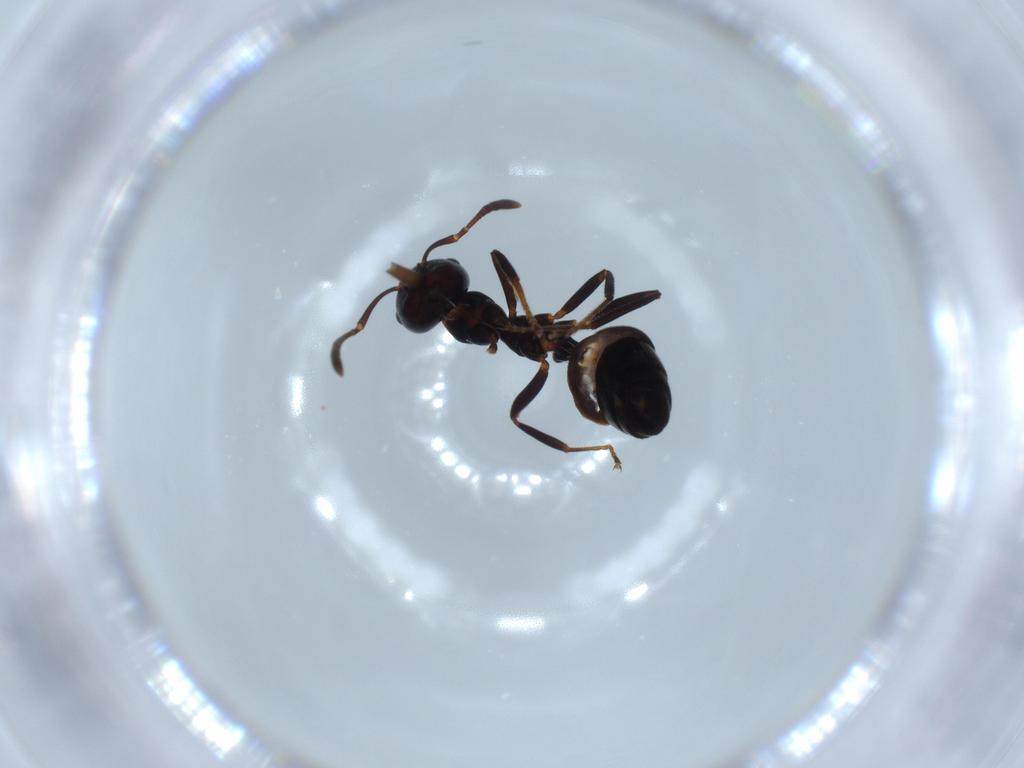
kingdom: Animalia
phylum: Arthropoda
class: Insecta
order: Hymenoptera
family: Formicidae
